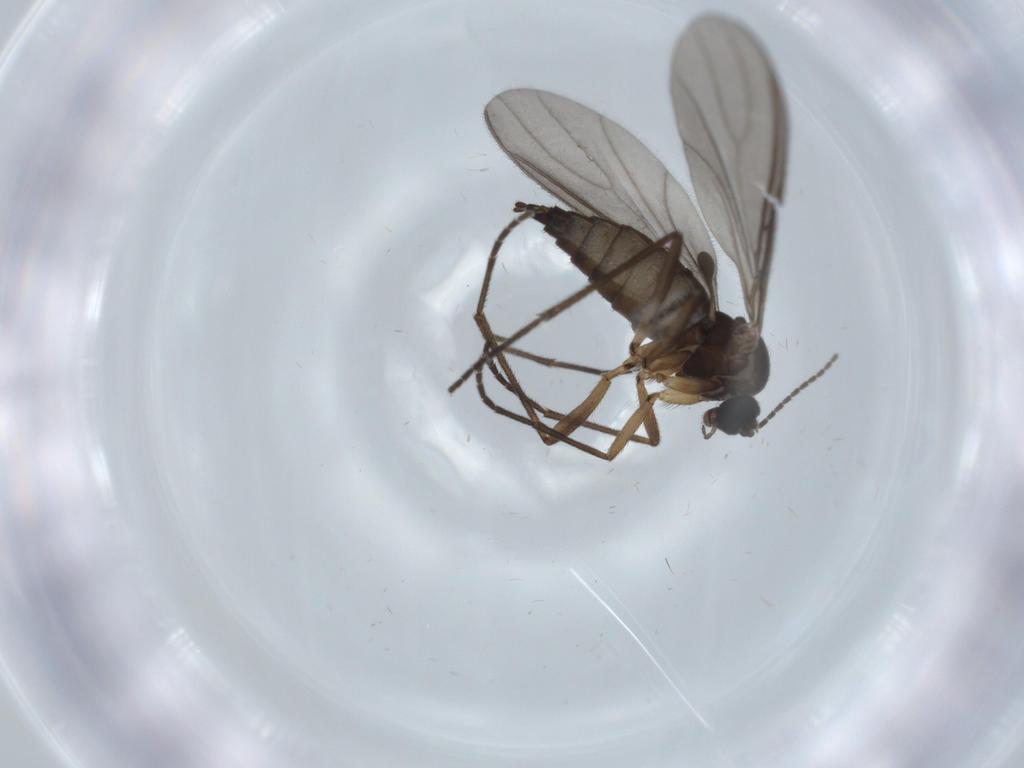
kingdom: Animalia
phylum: Arthropoda
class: Insecta
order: Diptera
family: Sciaridae
